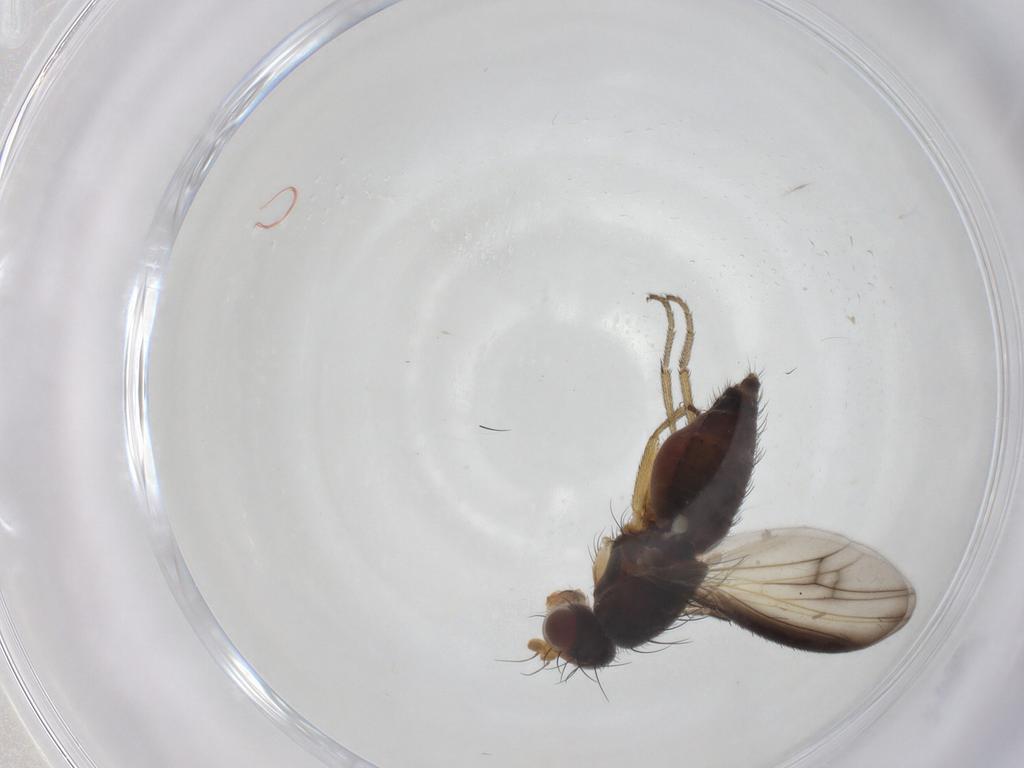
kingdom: Animalia
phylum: Arthropoda
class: Insecta
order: Diptera
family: Heleomyzidae
